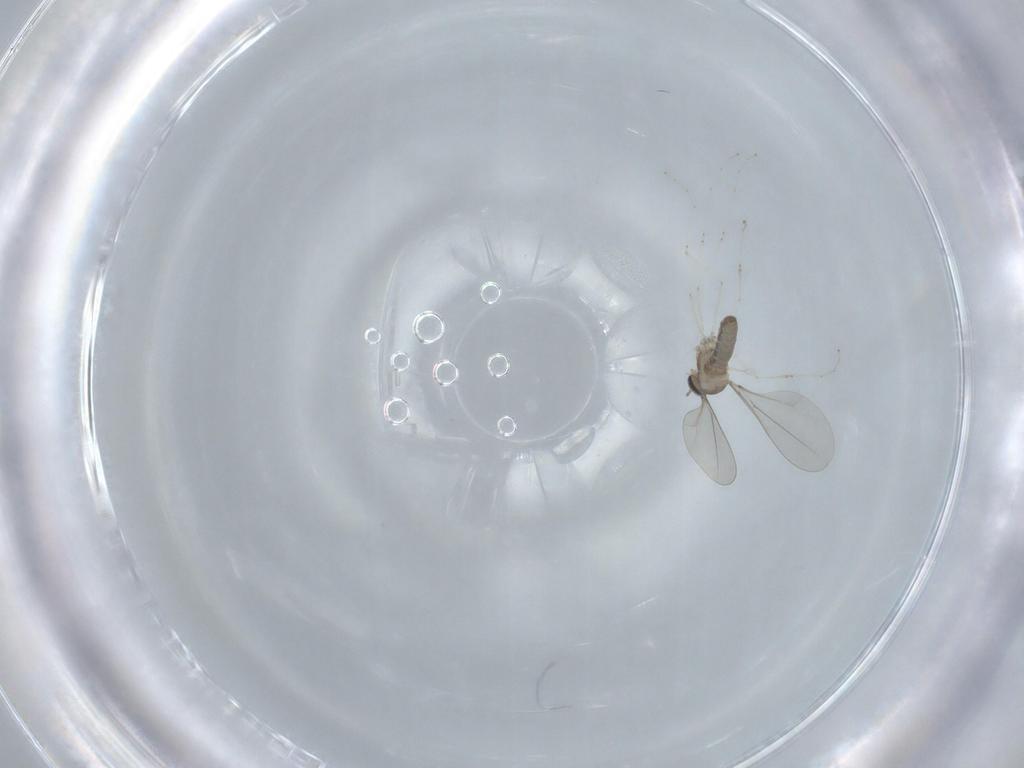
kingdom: Animalia
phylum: Arthropoda
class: Insecta
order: Diptera
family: Cecidomyiidae
